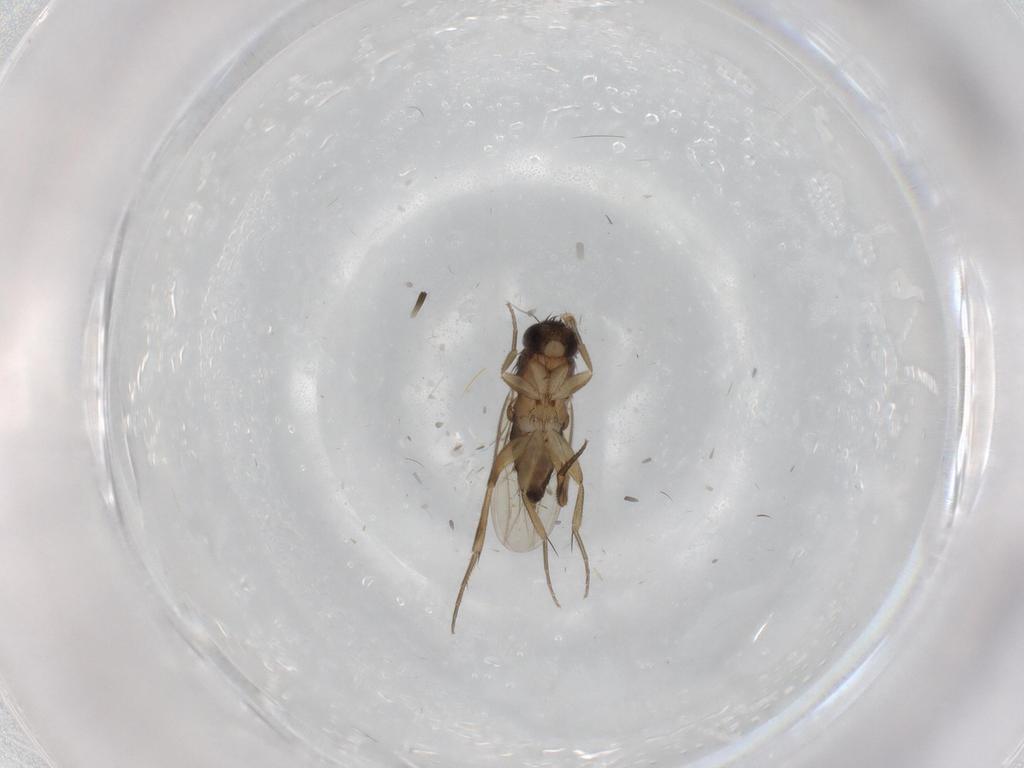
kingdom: Animalia
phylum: Arthropoda
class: Insecta
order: Diptera
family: Phoridae
